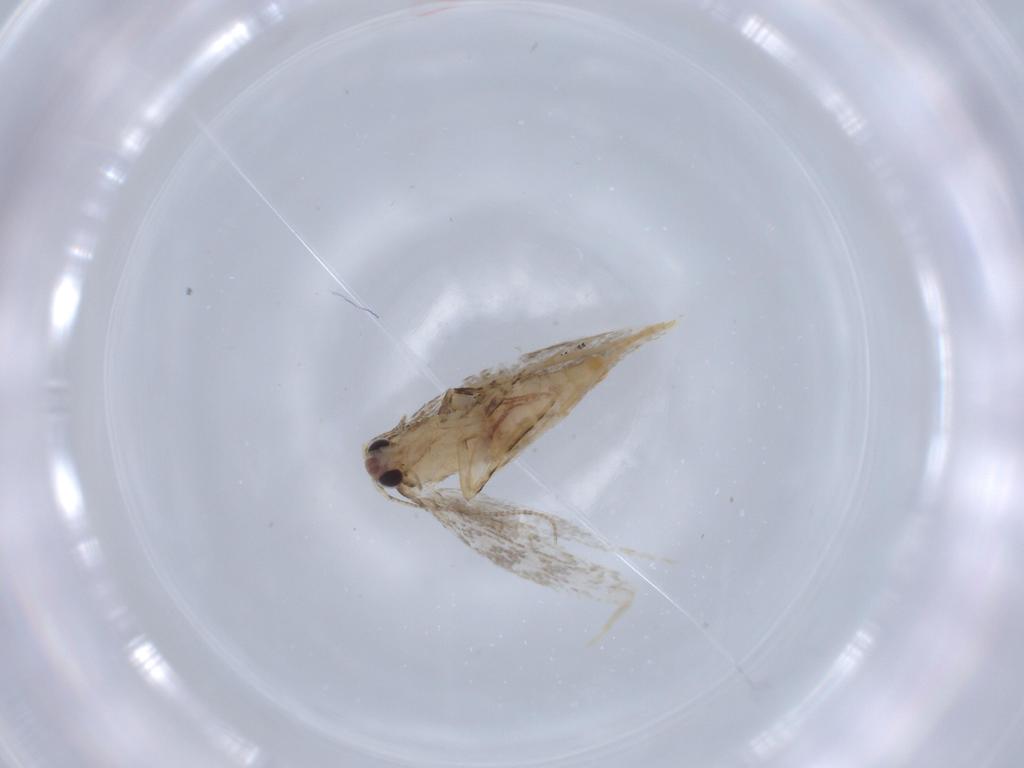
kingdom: Animalia
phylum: Arthropoda
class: Insecta
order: Lepidoptera
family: Tineidae
